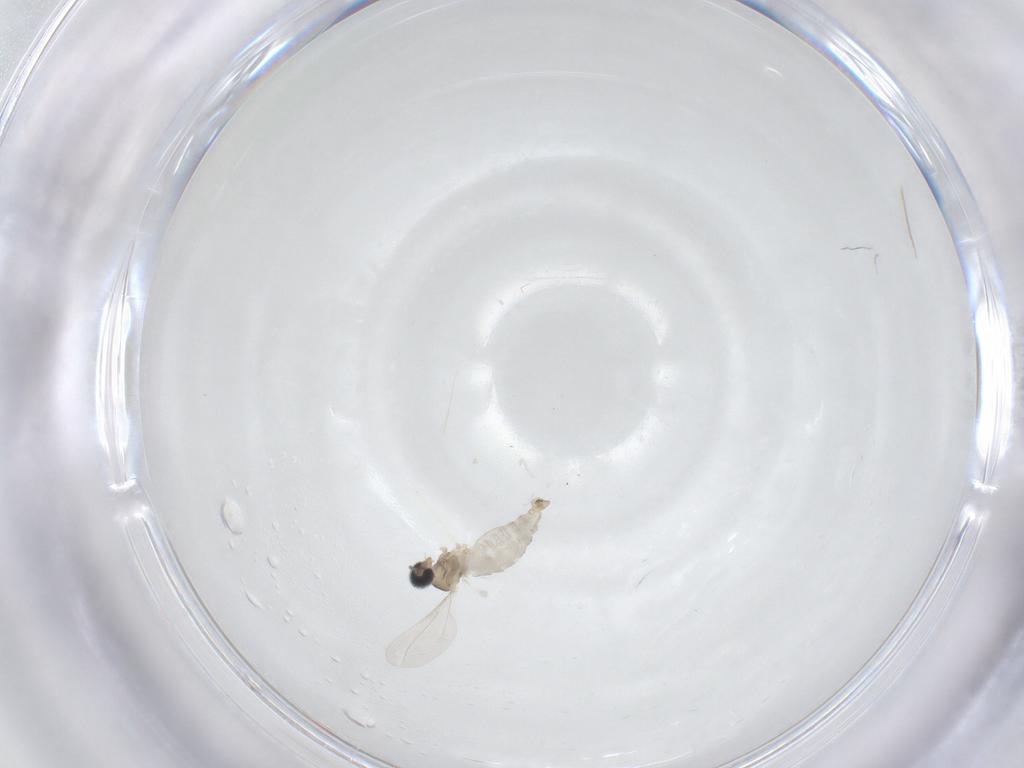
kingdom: Animalia
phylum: Arthropoda
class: Insecta
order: Diptera
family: Cecidomyiidae
